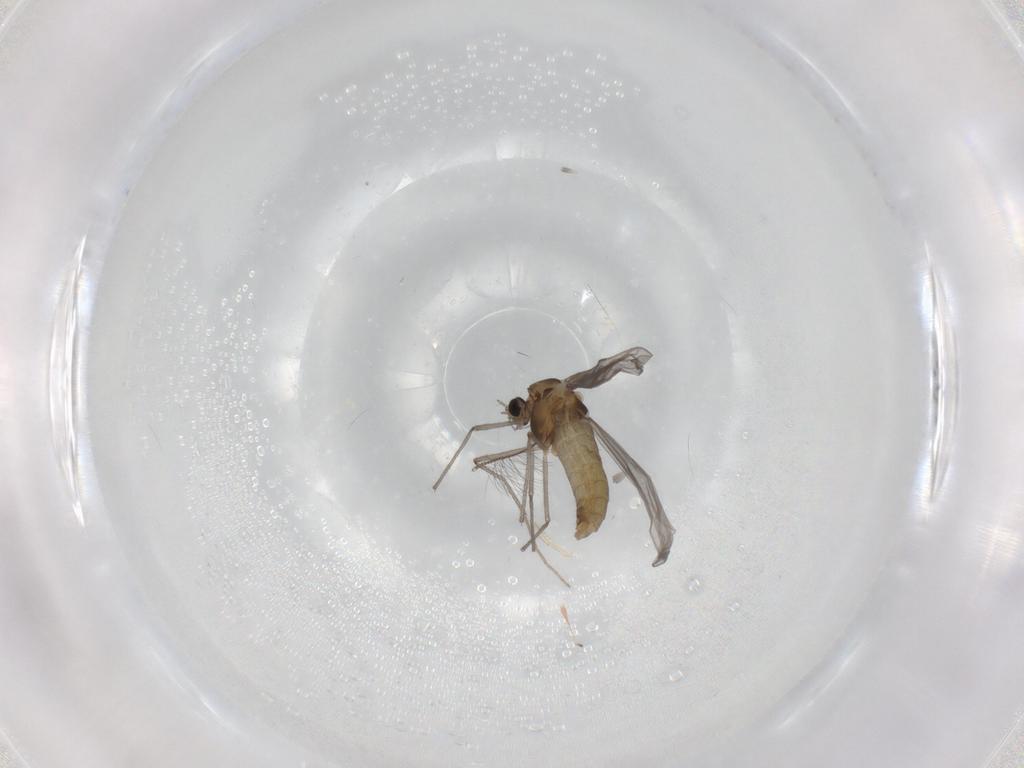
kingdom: Animalia
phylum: Arthropoda
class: Insecta
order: Diptera
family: Chironomidae
